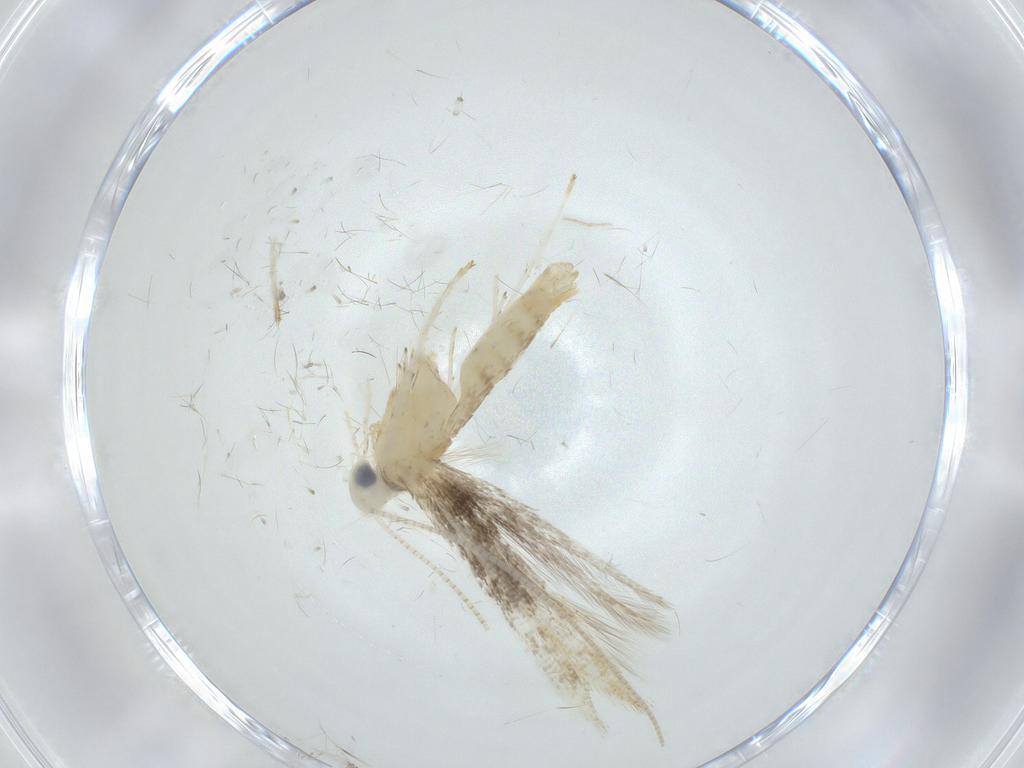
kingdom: Animalia
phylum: Arthropoda
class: Insecta
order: Lepidoptera
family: Gracillariidae
